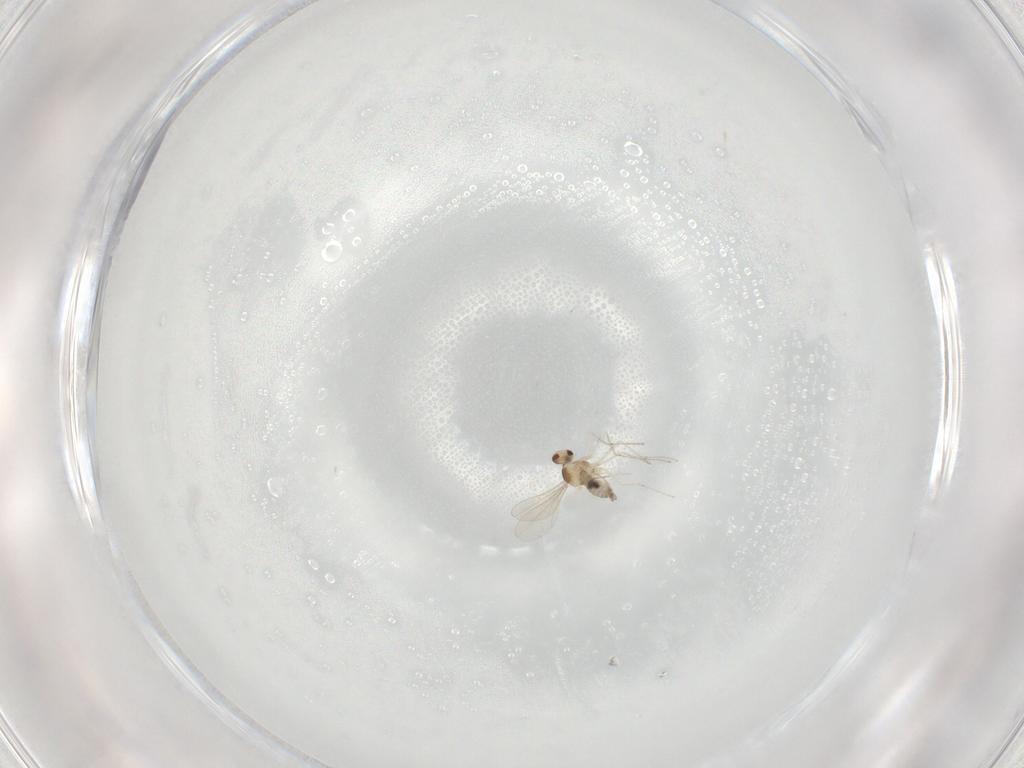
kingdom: Animalia
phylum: Arthropoda
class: Insecta
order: Diptera
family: Cecidomyiidae
